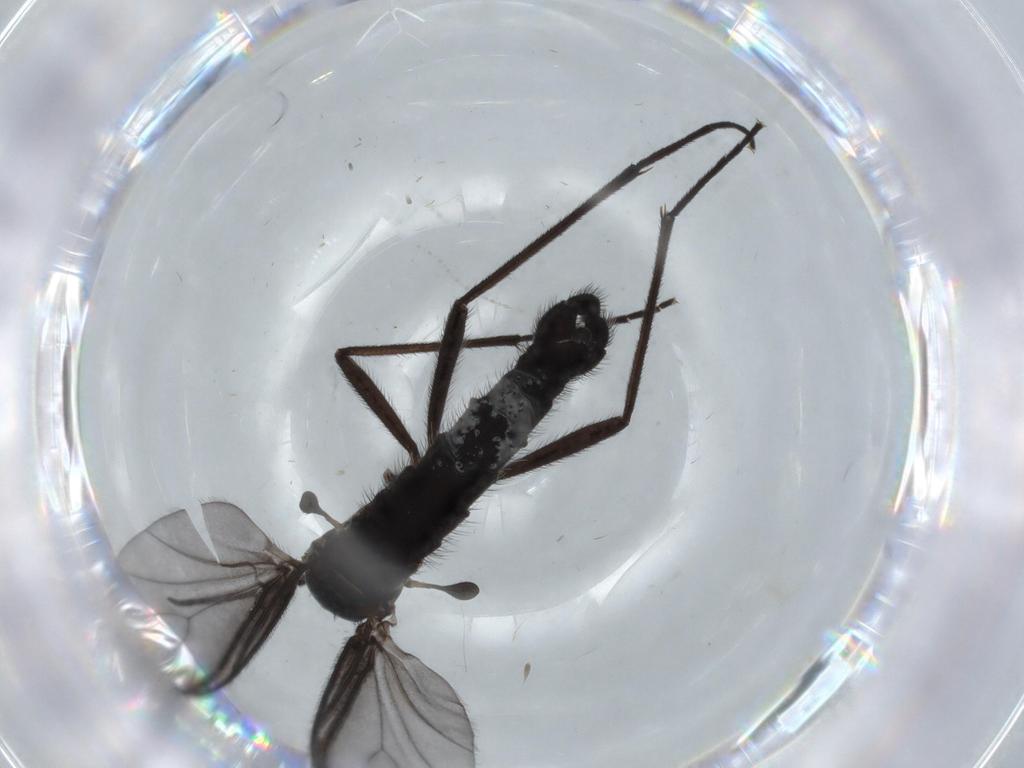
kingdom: Animalia
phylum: Arthropoda
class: Insecta
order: Diptera
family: Cecidomyiidae
